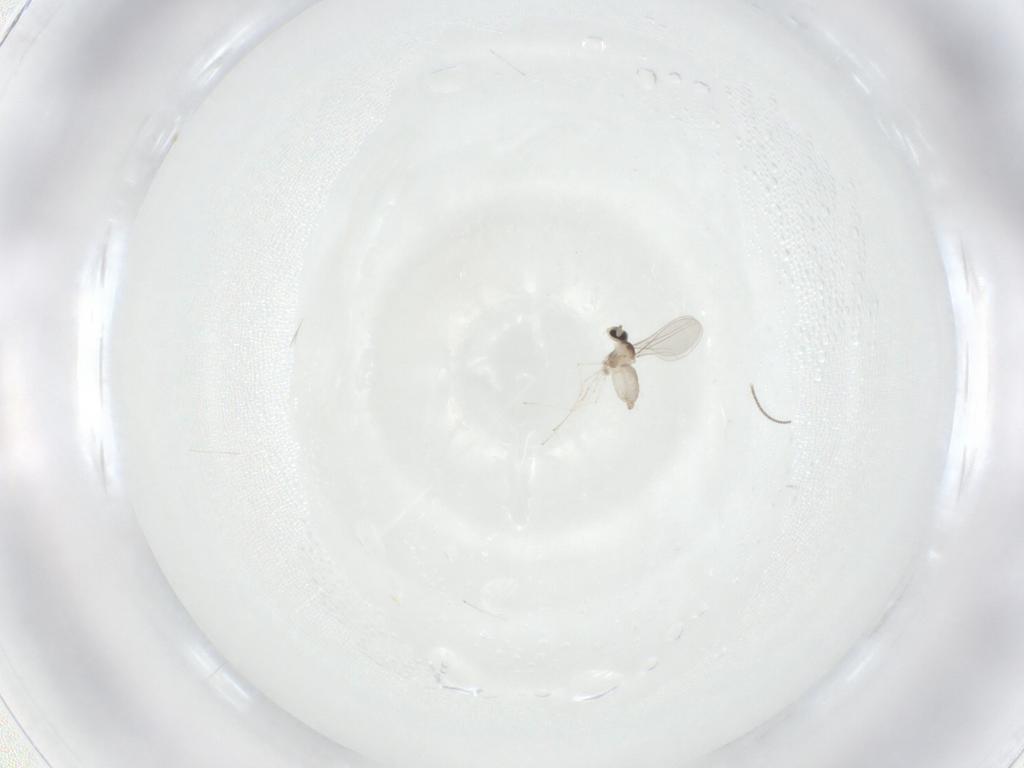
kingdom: Animalia
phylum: Arthropoda
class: Insecta
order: Diptera
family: Cecidomyiidae
